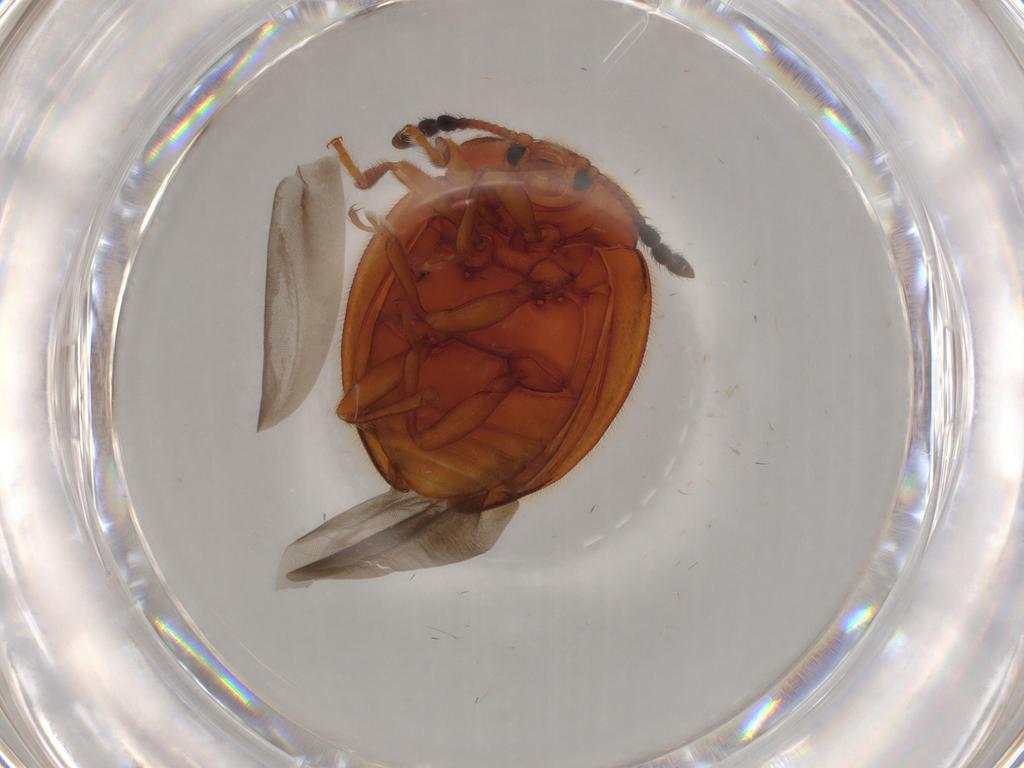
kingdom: Animalia
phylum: Arthropoda
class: Insecta
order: Coleoptera
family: Endomychidae
